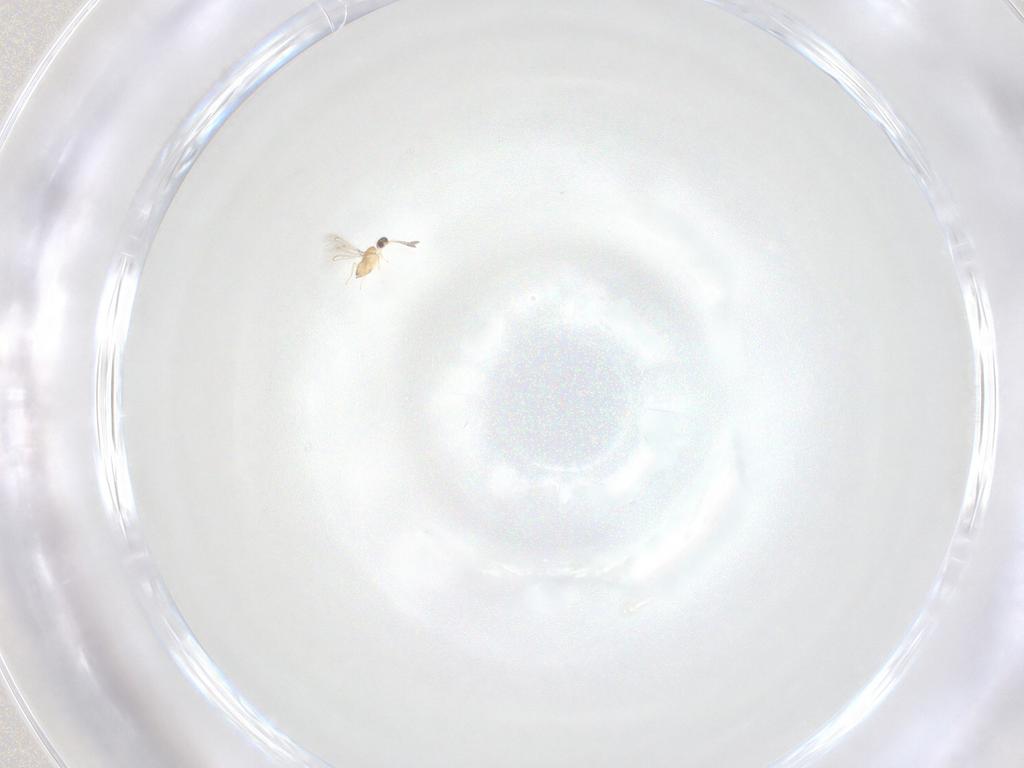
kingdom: Animalia
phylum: Arthropoda
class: Insecta
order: Hymenoptera
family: Mymaridae
